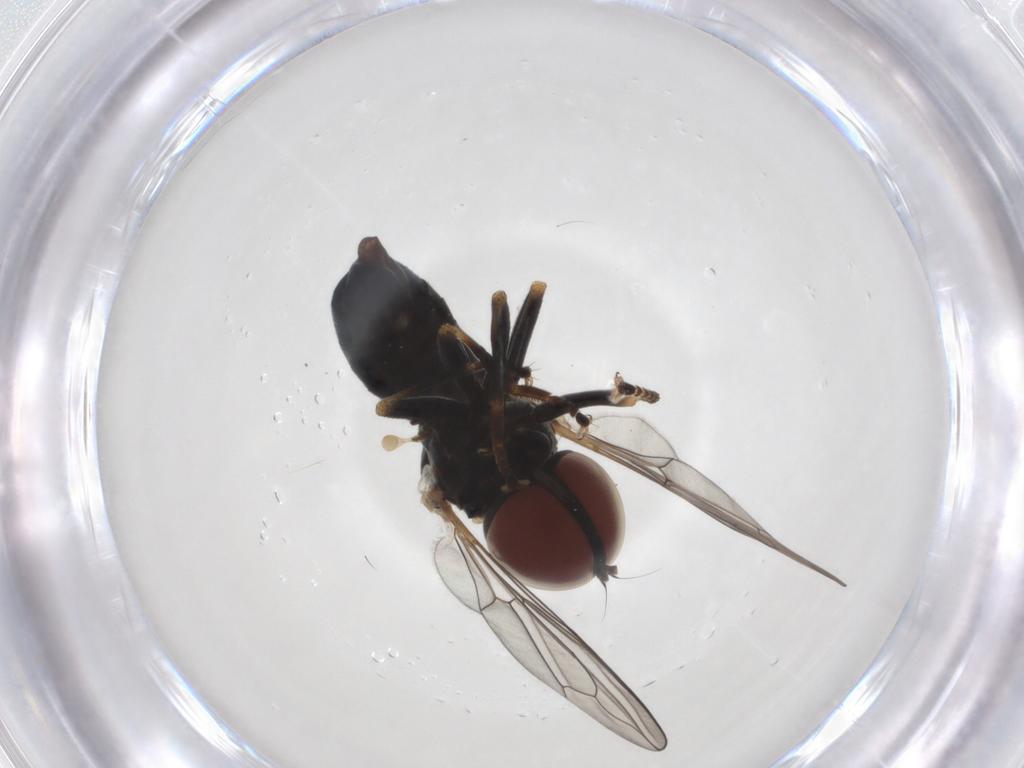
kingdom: Animalia
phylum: Arthropoda
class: Insecta
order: Diptera
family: Pipunculidae
